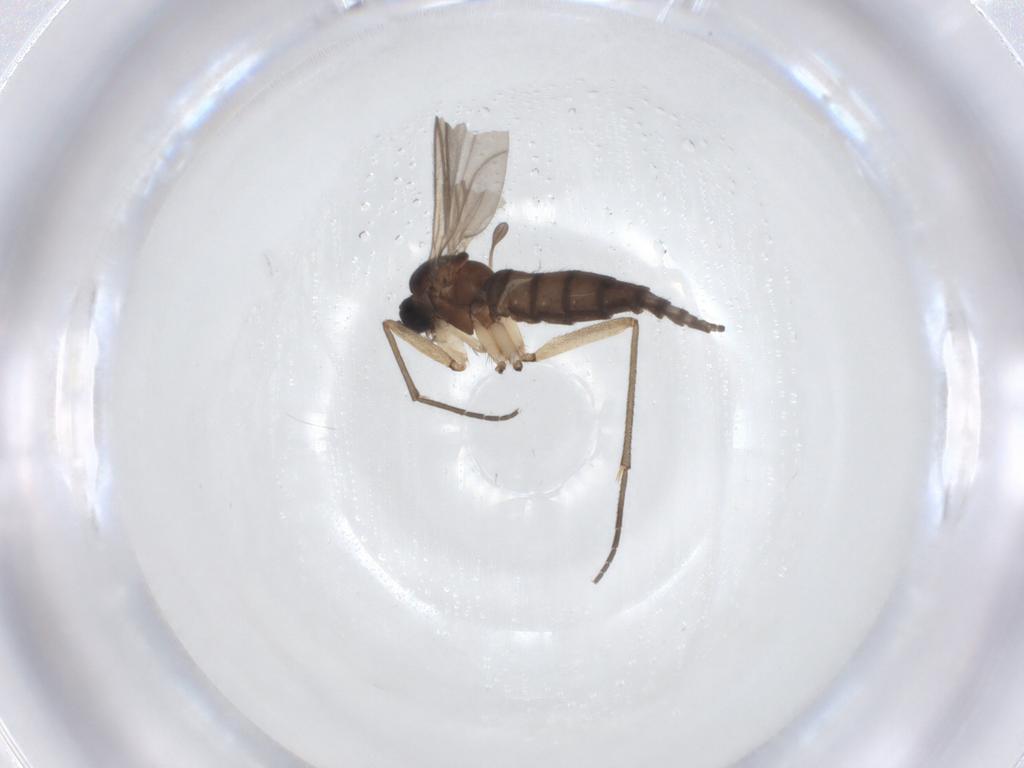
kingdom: Animalia
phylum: Arthropoda
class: Insecta
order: Diptera
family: Sciaridae
